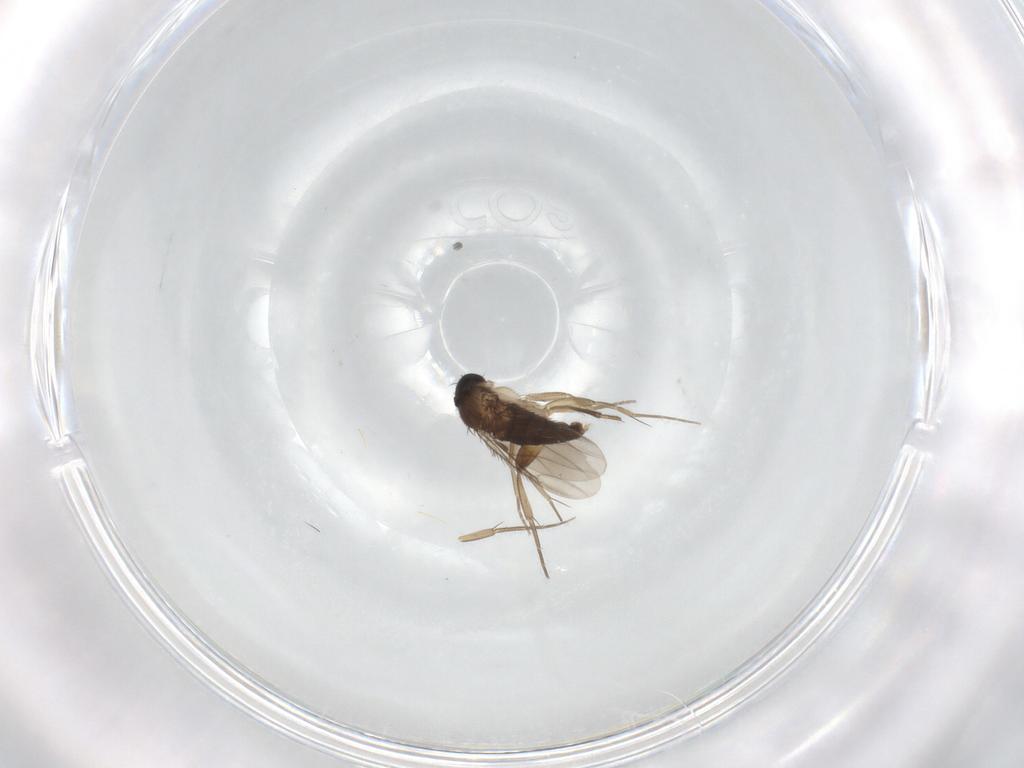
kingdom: Animalia
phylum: Arthropoda
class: Insecta
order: Diptera
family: Phoridae
